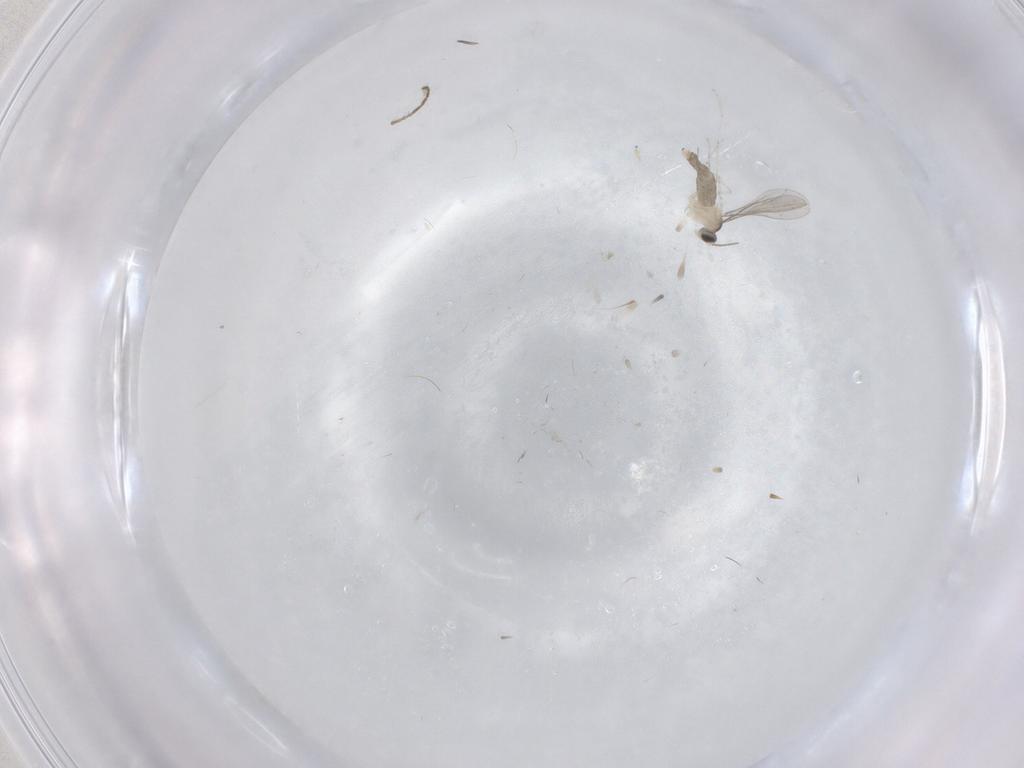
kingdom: Animalia
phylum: Arthropoda
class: Insecta
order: Diptera
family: Ceratopogonidae
